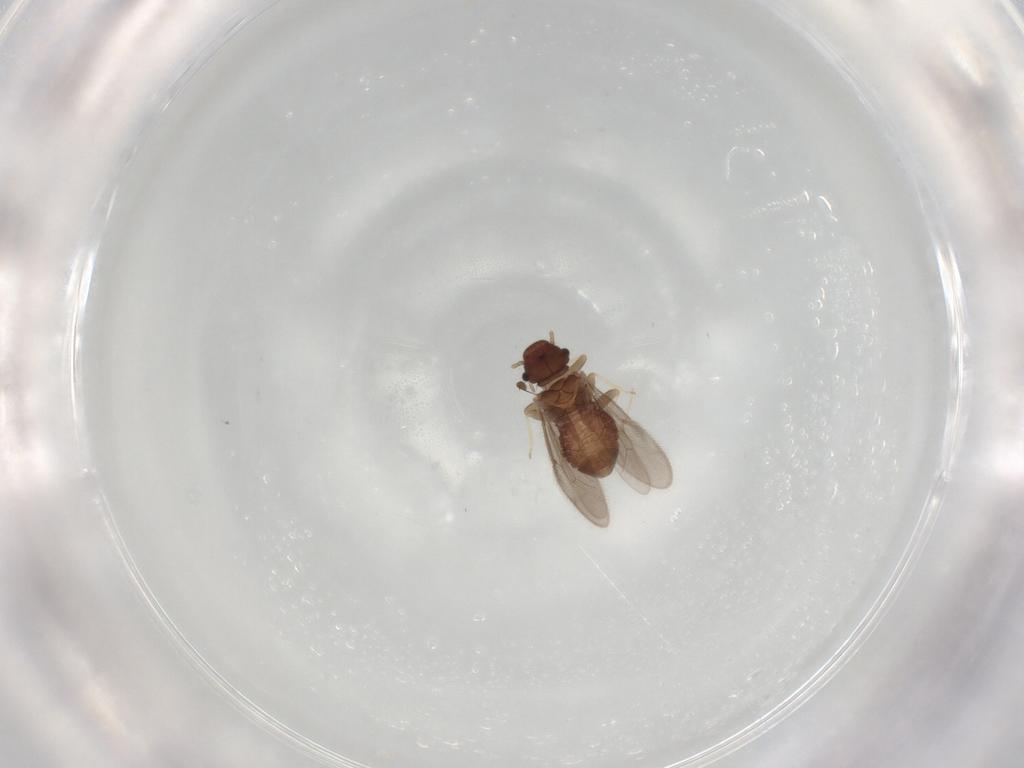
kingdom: Animalia
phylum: Arthropoda
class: Insecta
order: Psocodea
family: Archipsocidae
